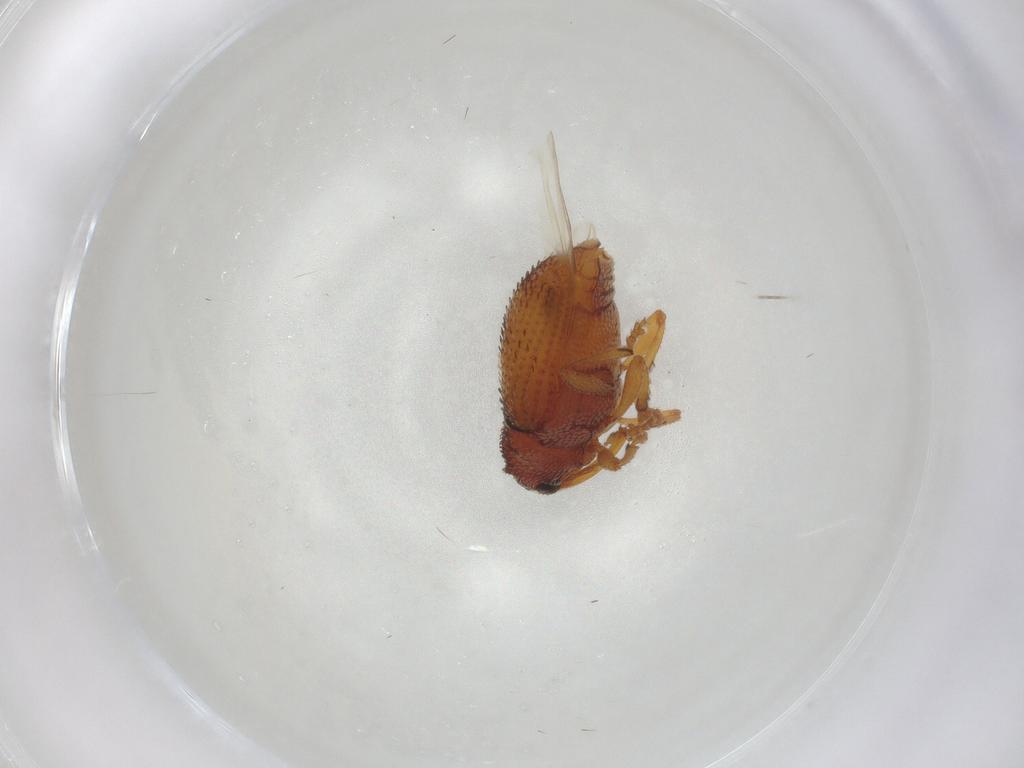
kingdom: Animalia
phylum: Arthropoda
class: Insecta
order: Coleoptera
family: Curculionidae
